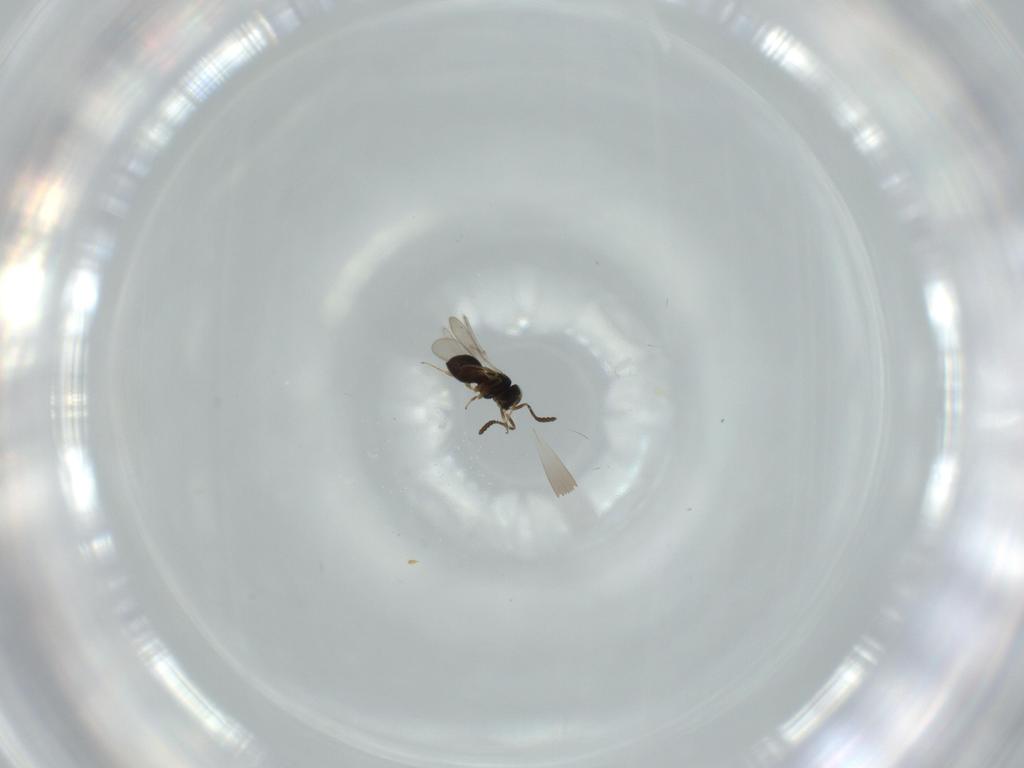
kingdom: Animalia
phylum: Arthropoda
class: Insecta
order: Hymenoptera
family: Scelionidae
